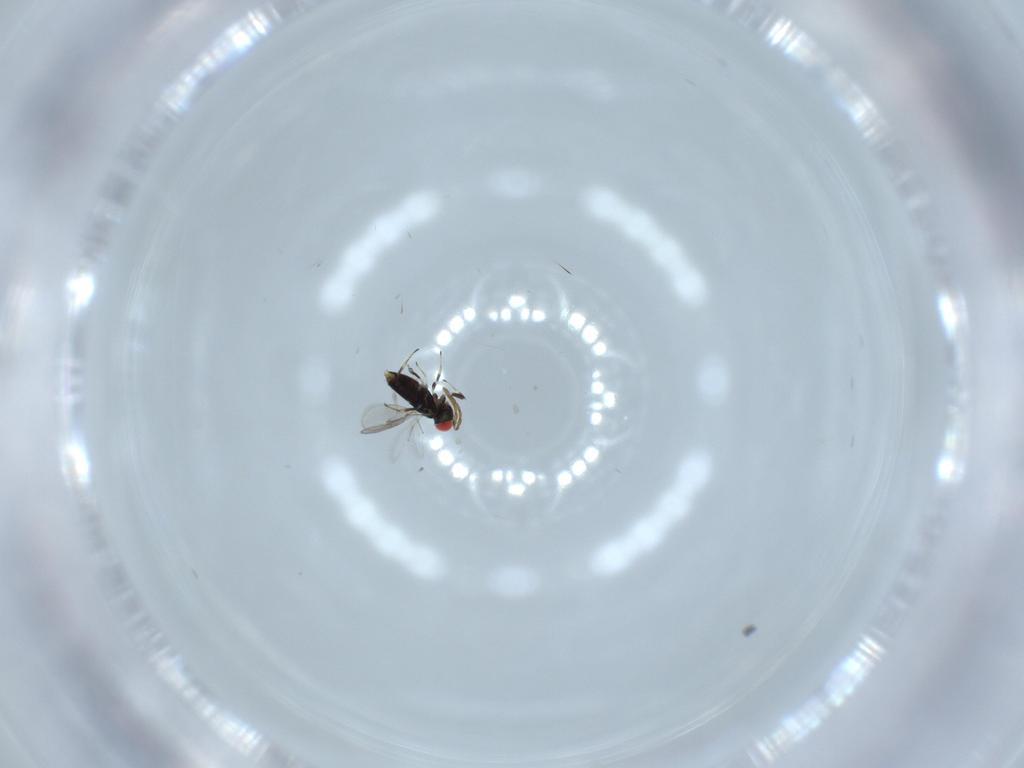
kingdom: Animalia
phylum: Arthropoda
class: Insecta
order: Hymenoptera
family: Azotidae
